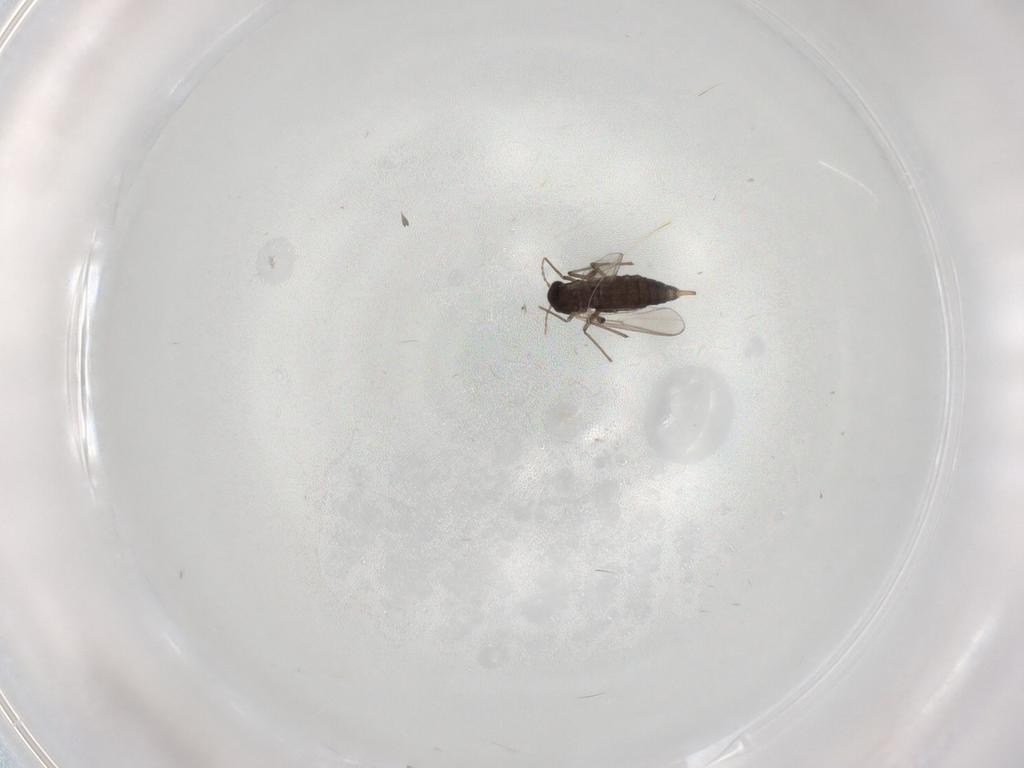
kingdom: Animalia
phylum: Arthropoda
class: Insecta
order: Diptera
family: Chironomidae
